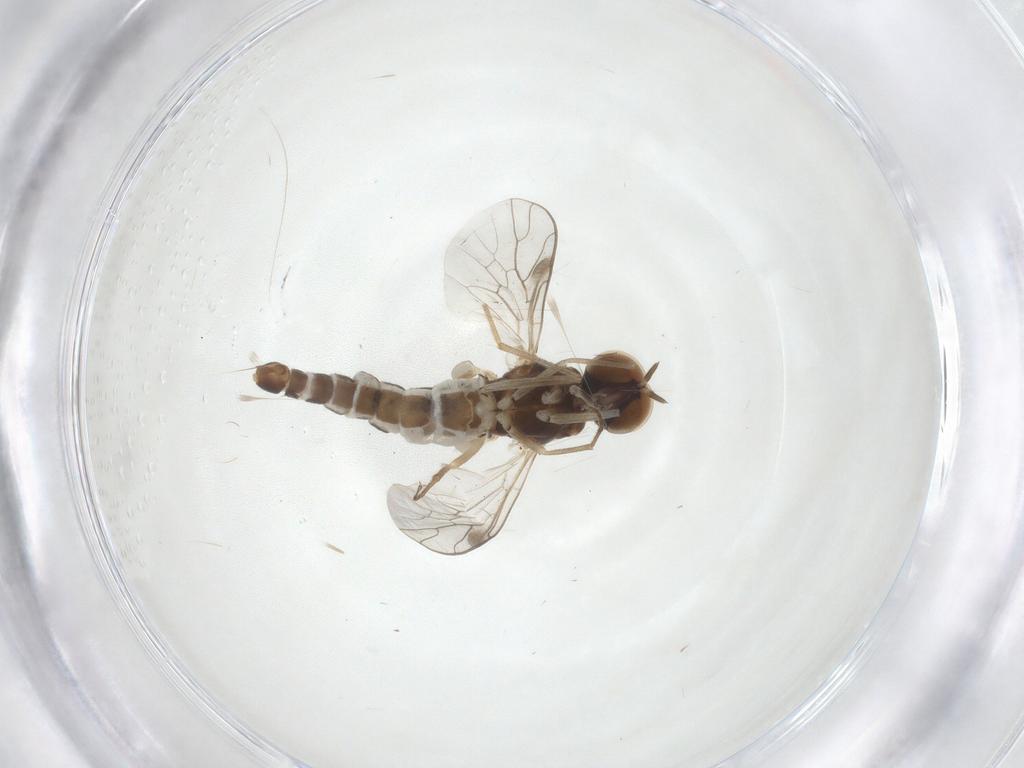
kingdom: Animalia
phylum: Arthropoda
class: Insecta
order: Diptera
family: Scenopinidae
